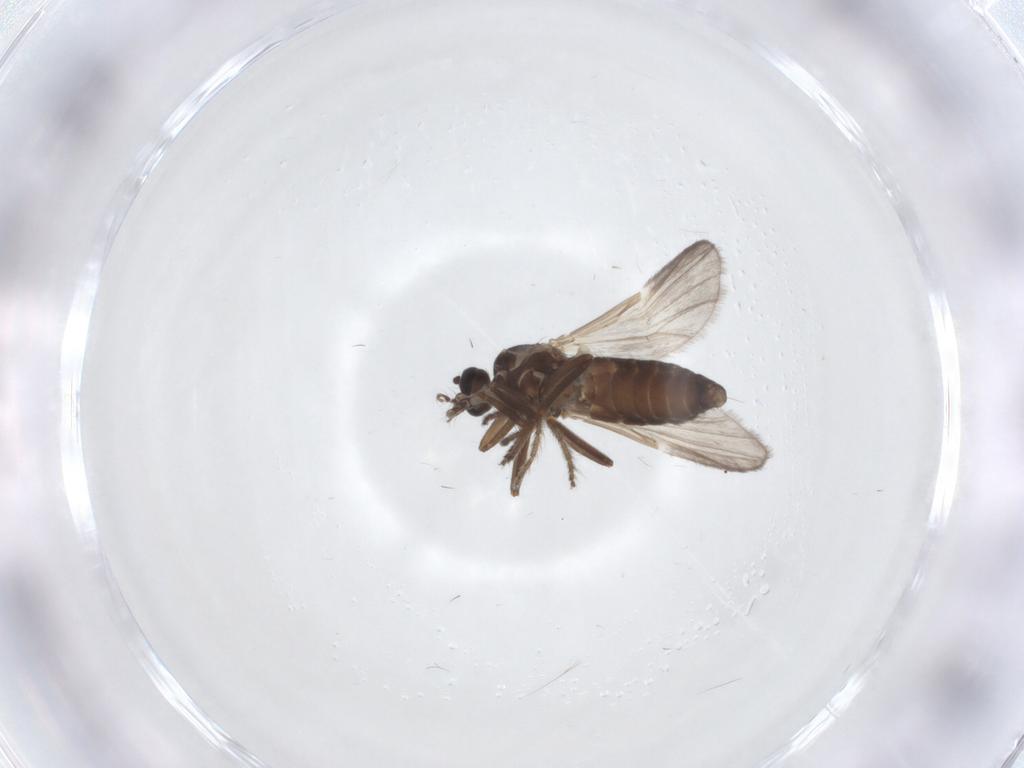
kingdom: Animalia
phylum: Arthropoda
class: Insecta
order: Diptera
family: Ceratopogonidae
